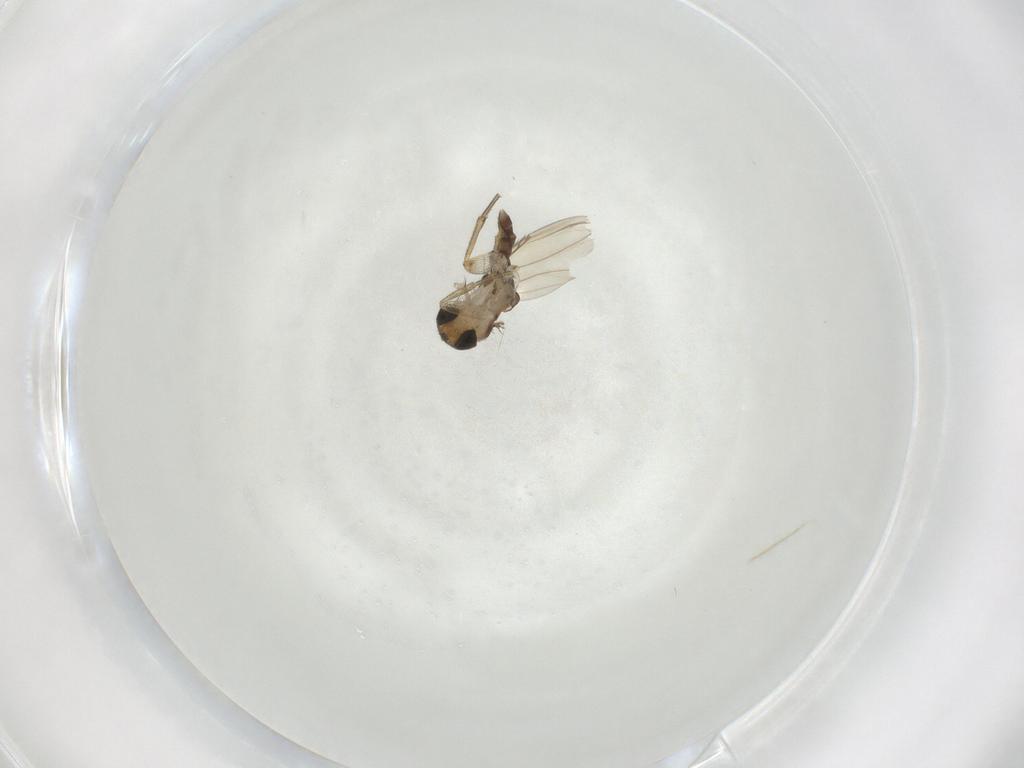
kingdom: Animalia
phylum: Arthropoda
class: Insecta
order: Diptera
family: Phoridae
